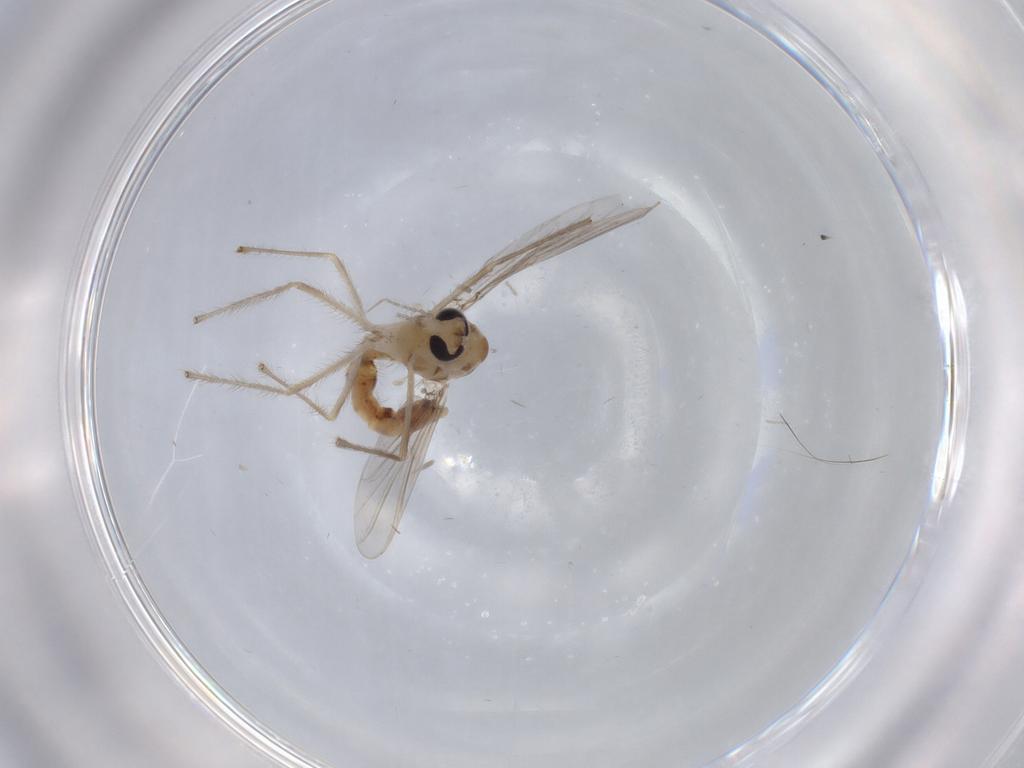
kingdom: Animalia
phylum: Arthropoda
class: Insecta
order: Diptera
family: Chironomidae
